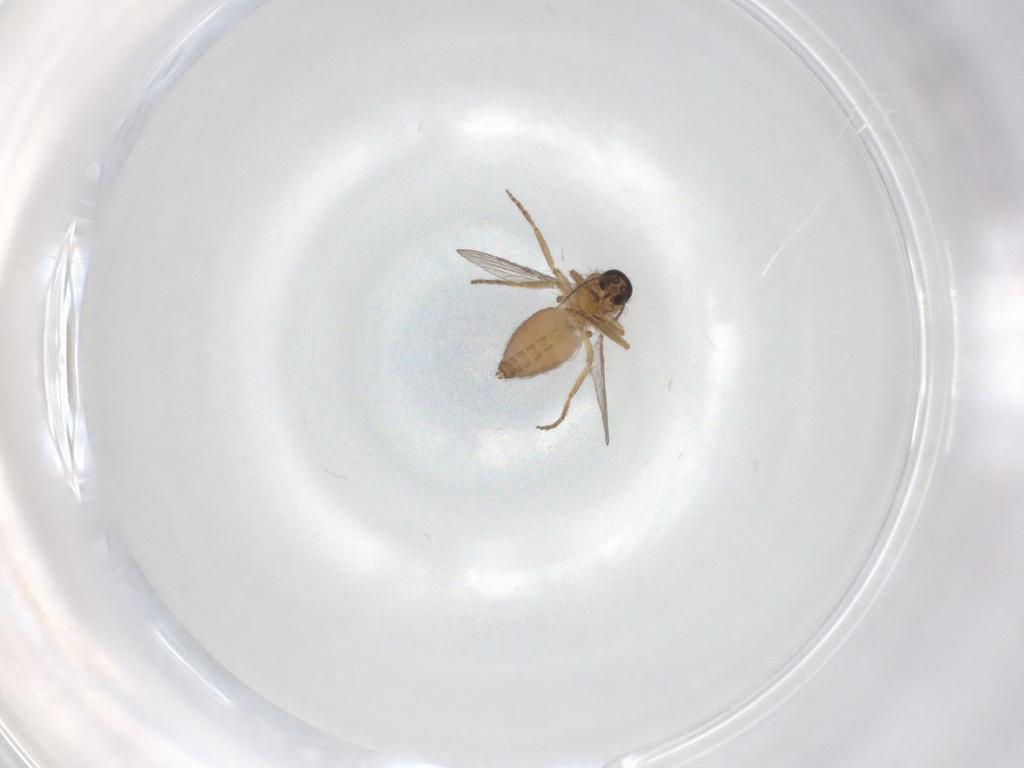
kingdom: Animalia
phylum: Arthropoda
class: Insecta
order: Diptera
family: Ceratopogonidae
